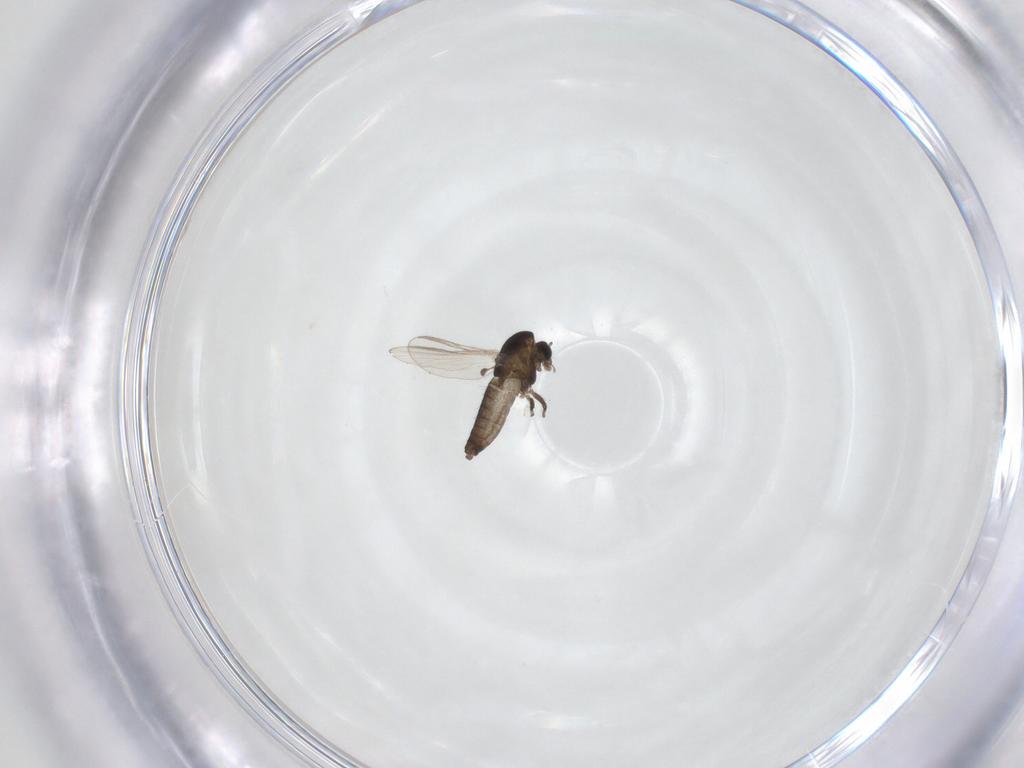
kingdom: Animalia
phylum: Arthropoda
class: Insecta
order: Diptera
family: Chironomidae
